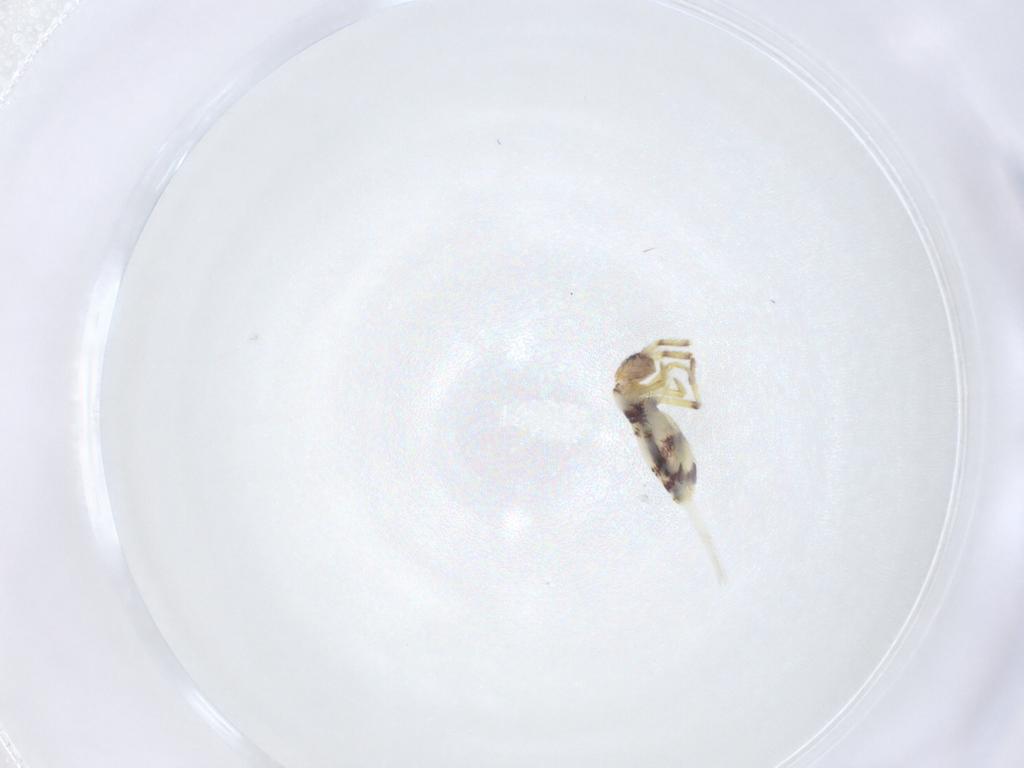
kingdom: Animalia
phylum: Arthropoda
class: Collembola
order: Entomobryomorpha
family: Entomobryidae
